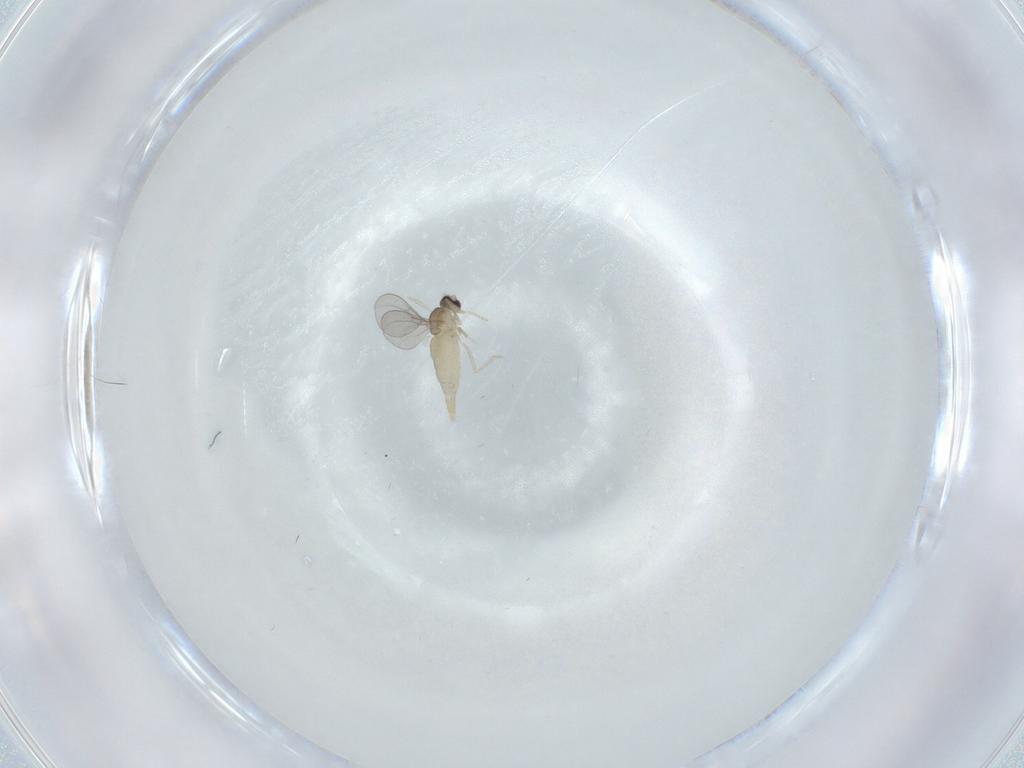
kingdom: Animalia
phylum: Arthropoda
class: Insecta
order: Diptera
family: Cecidomyiidae
